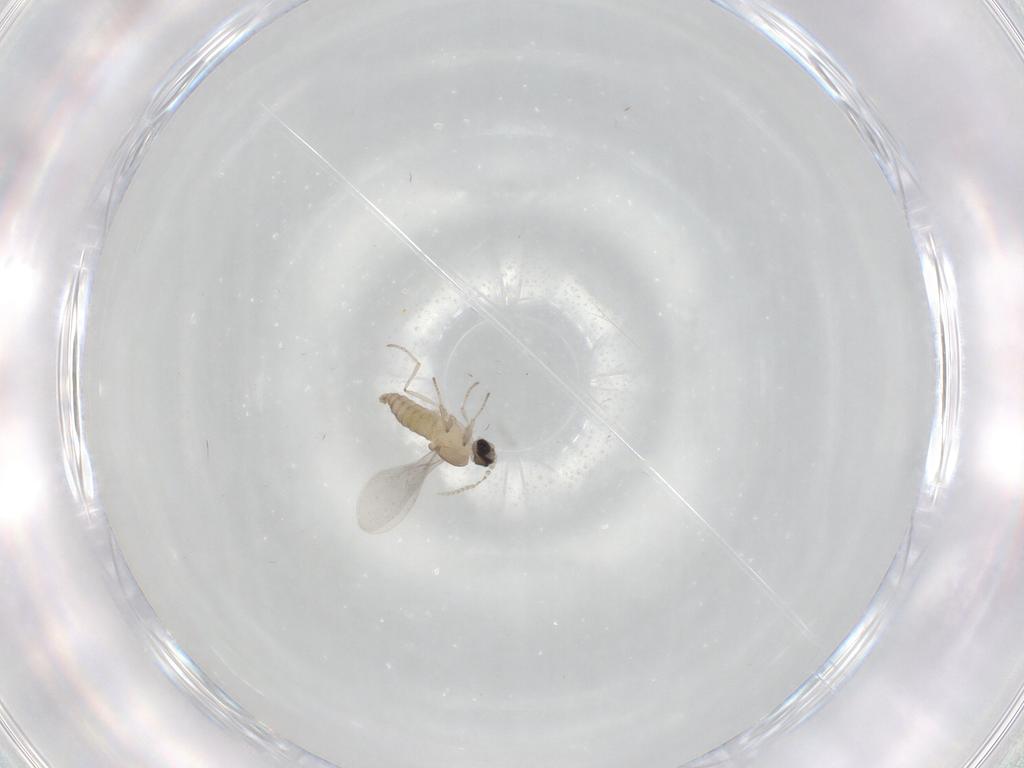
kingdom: Animalia
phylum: Arthropoda
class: Insecta
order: Diptera
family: Cecidomyiidae
